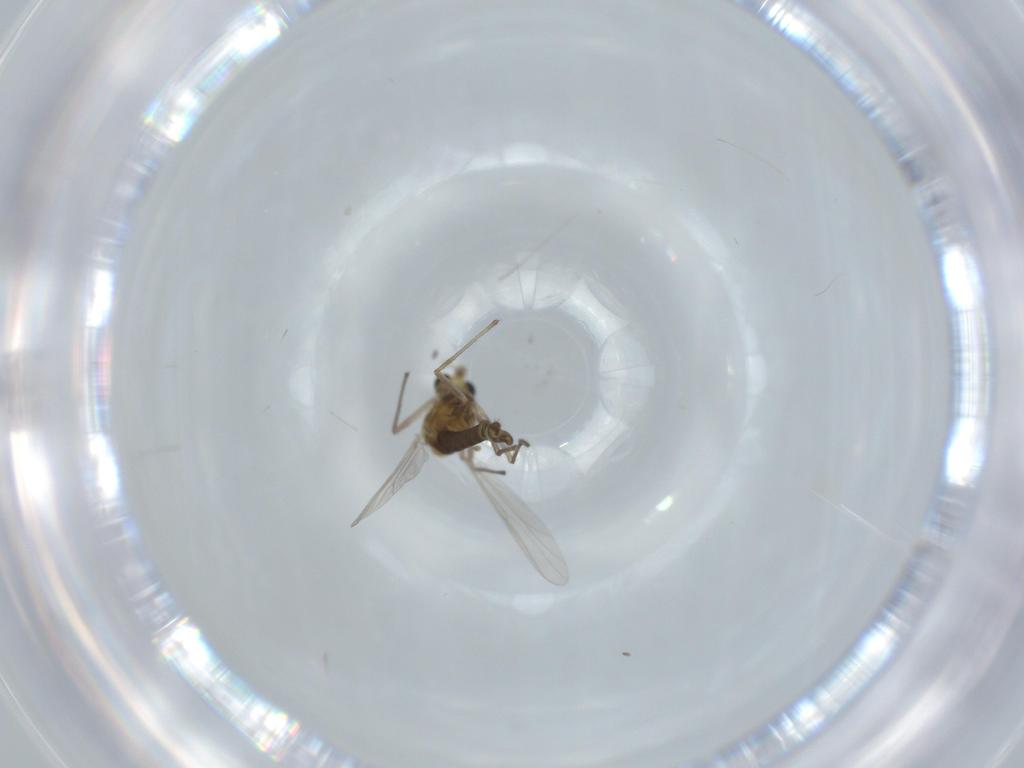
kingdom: Animalia
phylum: Arthropoda
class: Insecta
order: Diptera
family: Chironomidae
